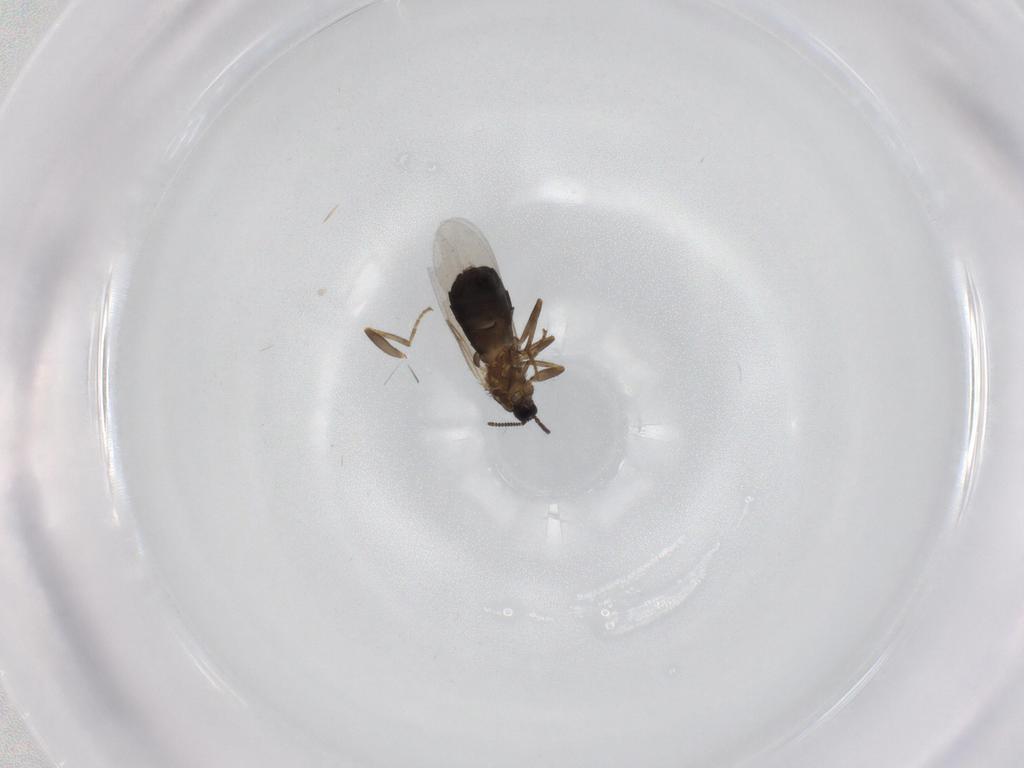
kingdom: Animalia
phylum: Arthropoda
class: Insecta
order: Diptera
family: Scatopsidae
